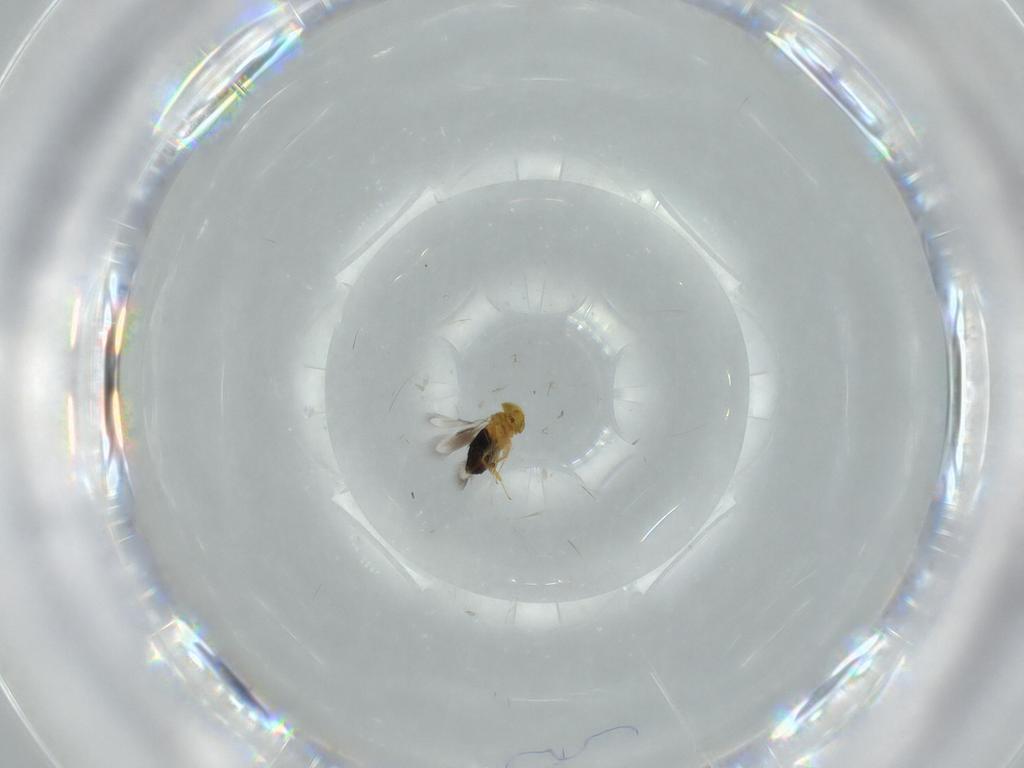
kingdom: Animalia
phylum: Arthropoda
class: Insecta
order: Hymenoptera
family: Signiphoridae
